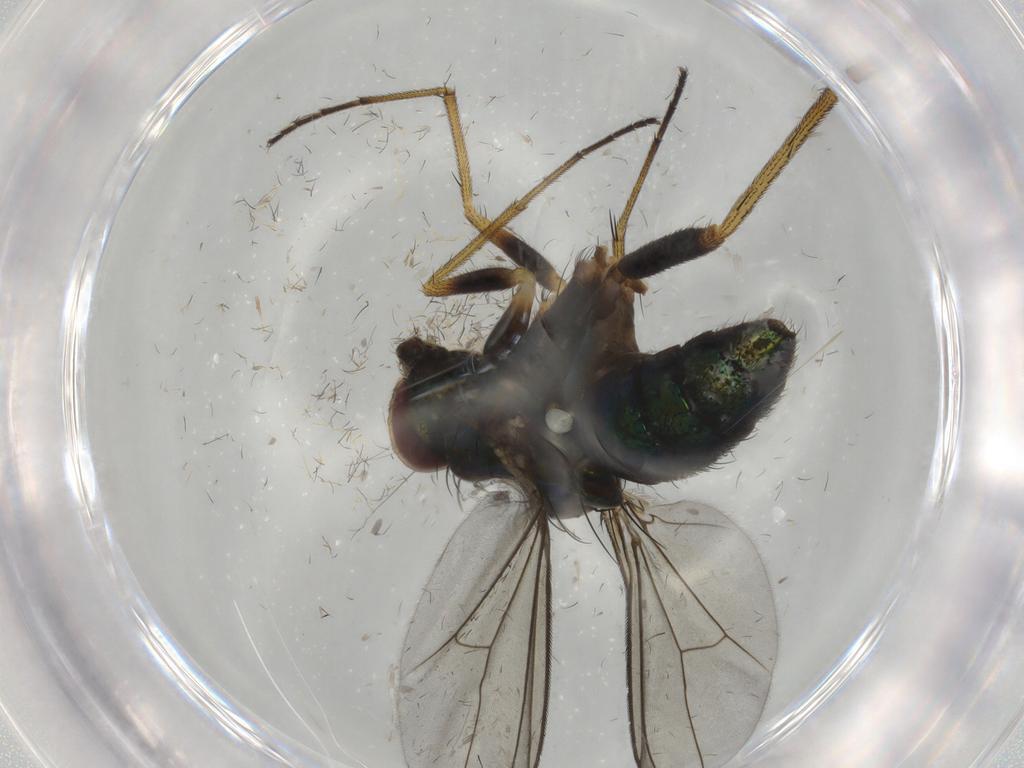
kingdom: Animalia
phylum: Arthropoda
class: Insecta
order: Diptera
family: Dolichopodidae
